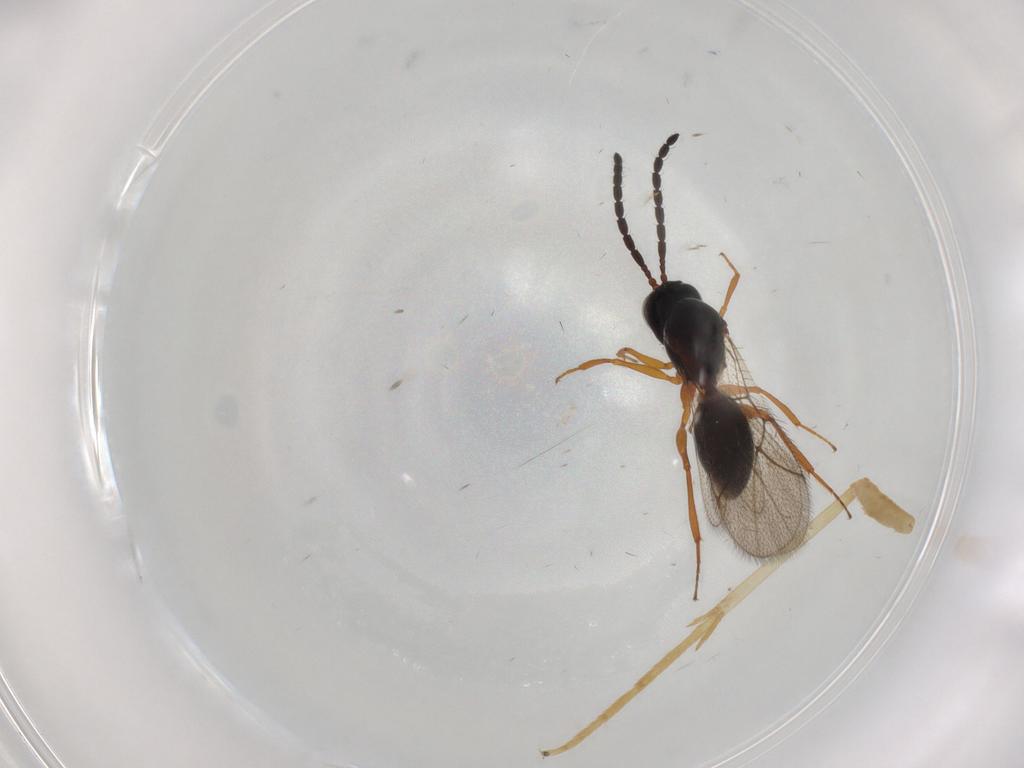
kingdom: Animalia
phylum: Arthropoda
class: Insecta
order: Hymenoptera
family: Figitidae
